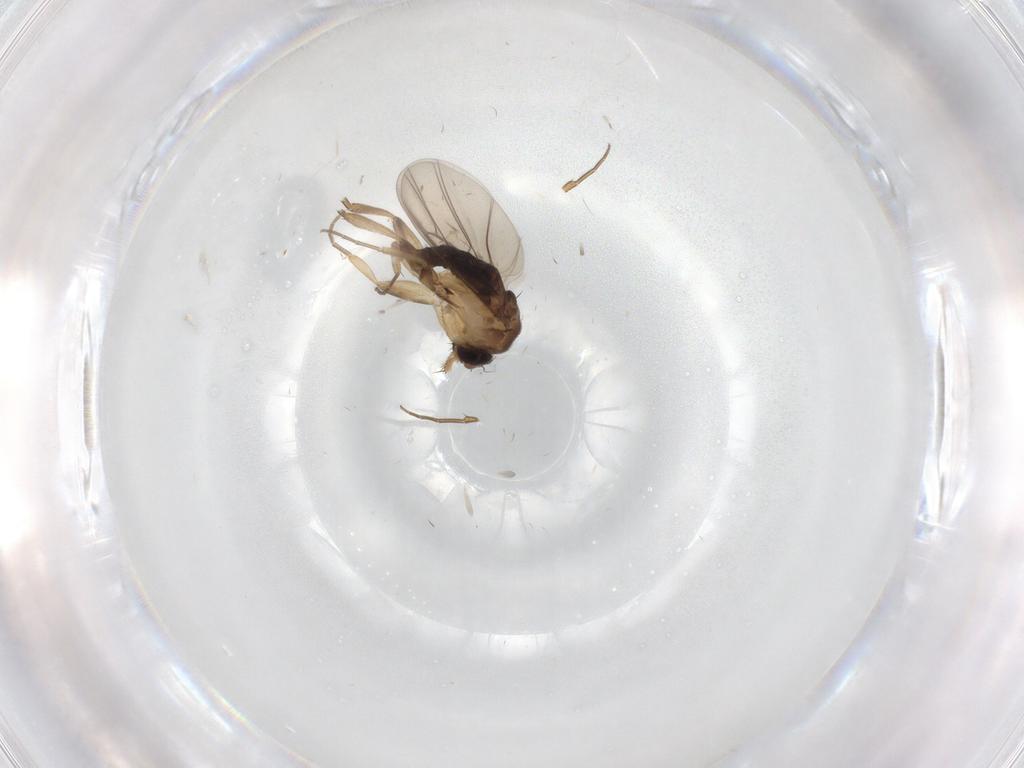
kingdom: Animalia
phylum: Arthropoda
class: Insecta
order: Diptera
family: Phoridae
